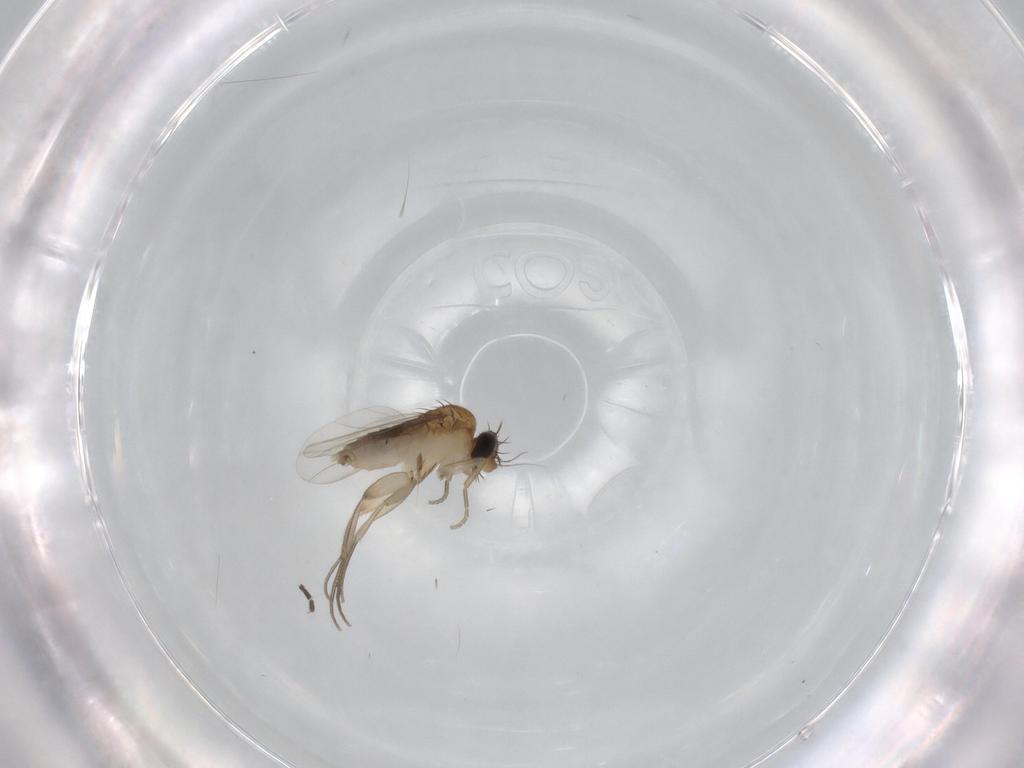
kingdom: Animalia
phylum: Arthropoda
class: Insecta
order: Diptera
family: Phoridae
